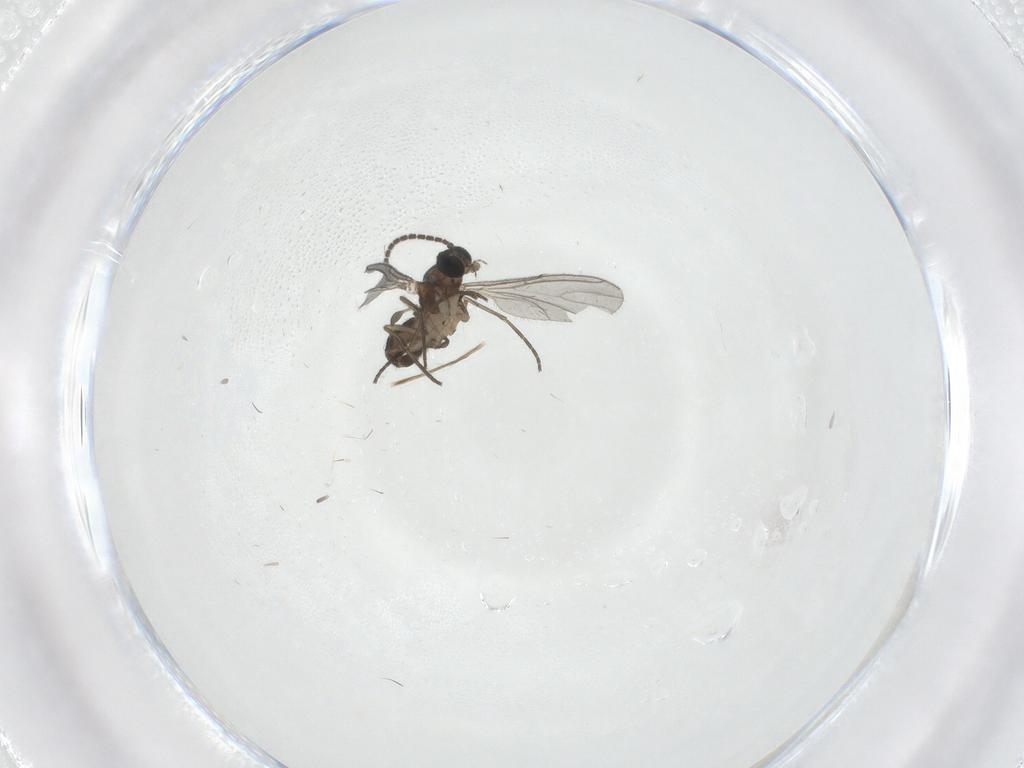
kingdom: Animalia
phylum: Arthropoda
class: Insecta
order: Diptera
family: Sciaridae
